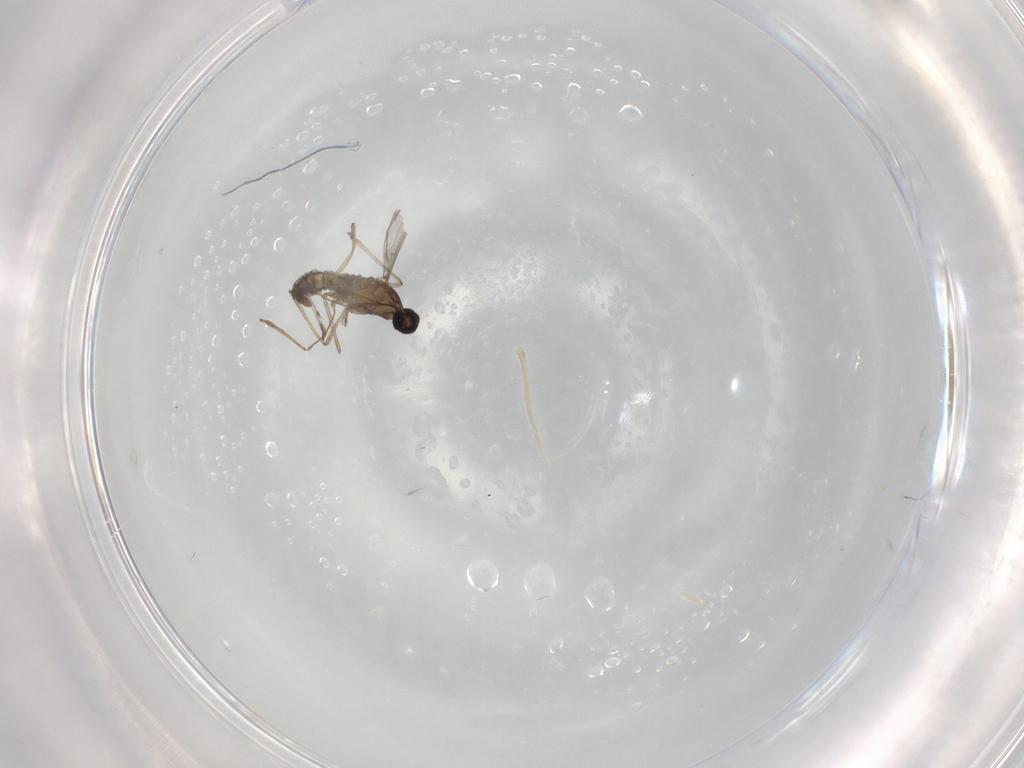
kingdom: Animalia
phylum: Arthropoda
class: Insecta
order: Diptera
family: Cecidomyiidae
